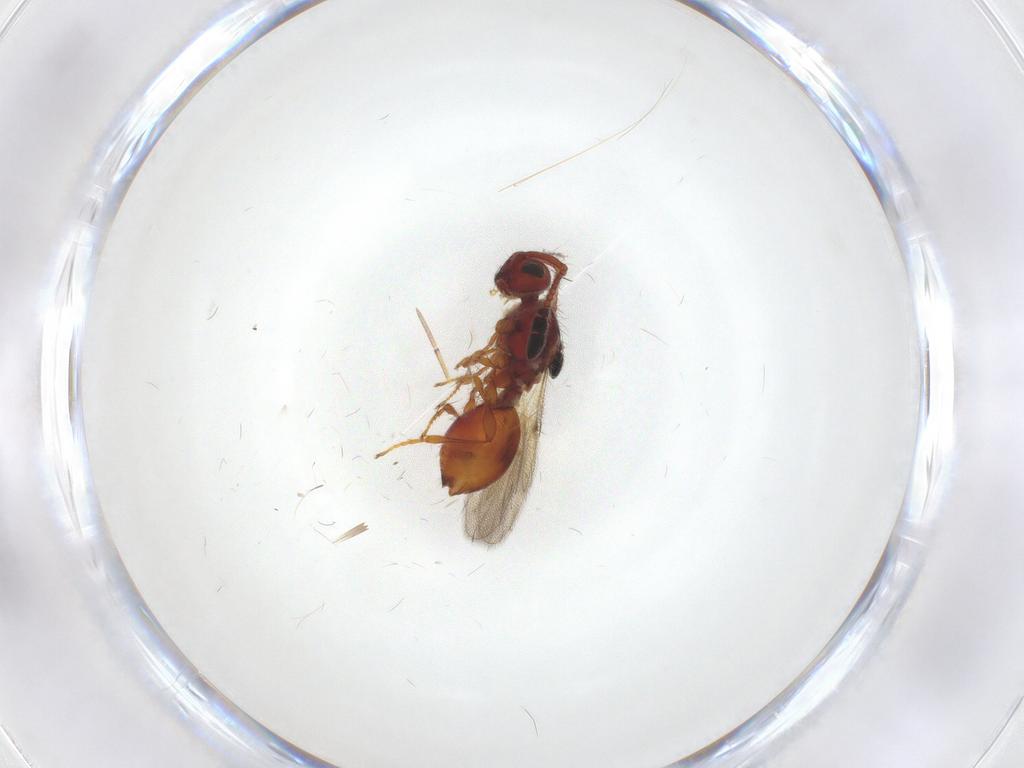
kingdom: Animalia
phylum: Arthropoda
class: Insecta
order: Hymenoptera
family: Diapriidae
